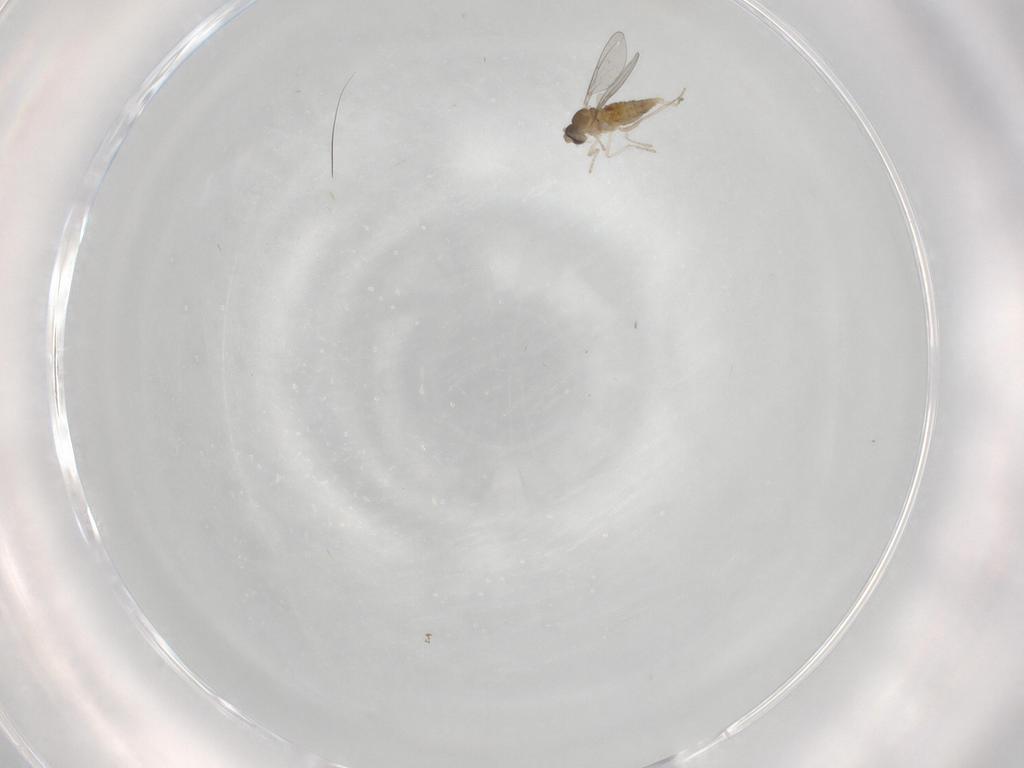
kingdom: Animalia
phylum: Arthropoda
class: Insecta
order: Diptera
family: Cecidomyiidae
